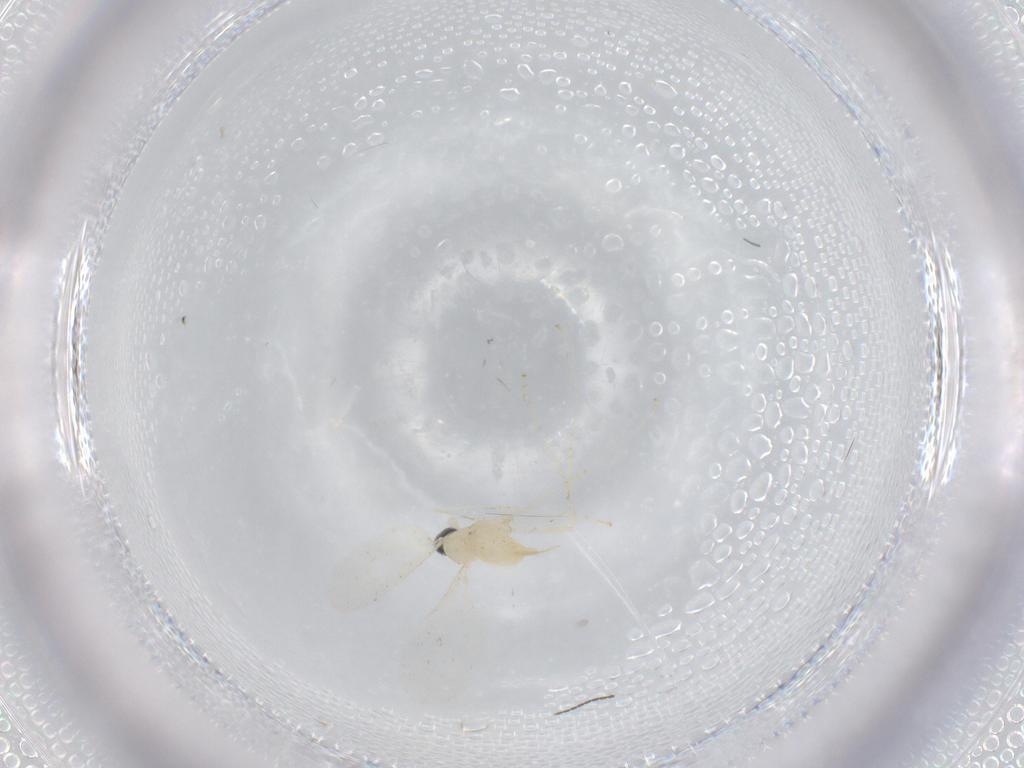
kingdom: Animalia
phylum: Arthropoda
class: Insecta
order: Diptera
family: Cecidomyiidae
